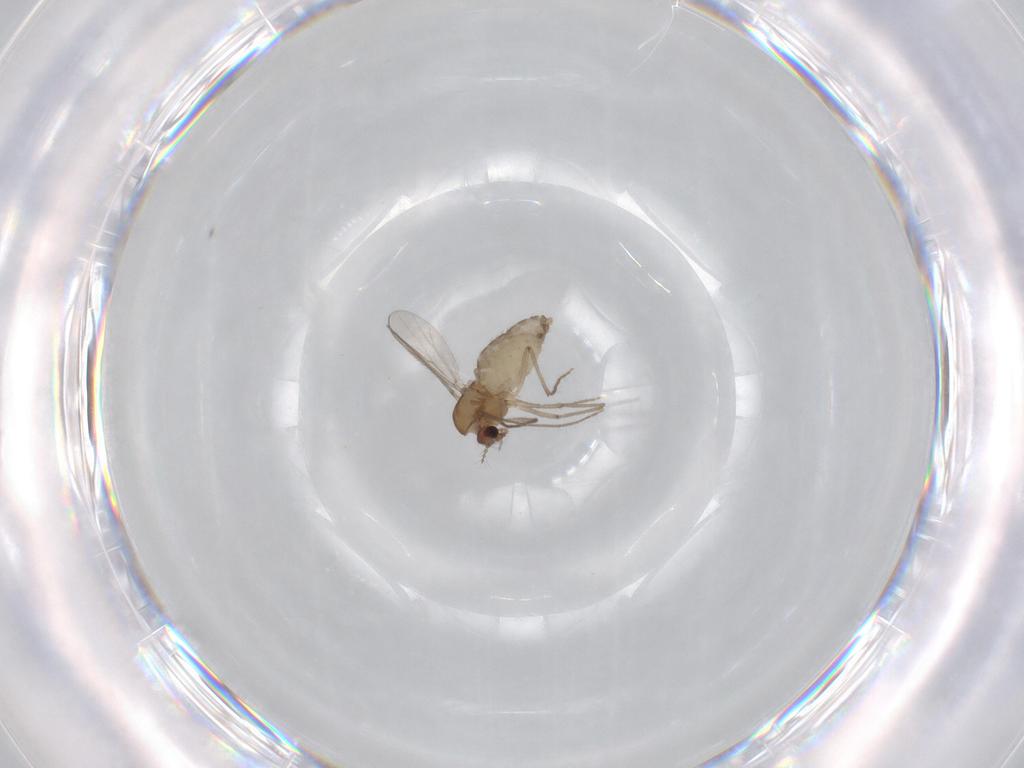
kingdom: Animalia
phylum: Arthropoda
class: Insecta
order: Diptera
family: Chironomidae
